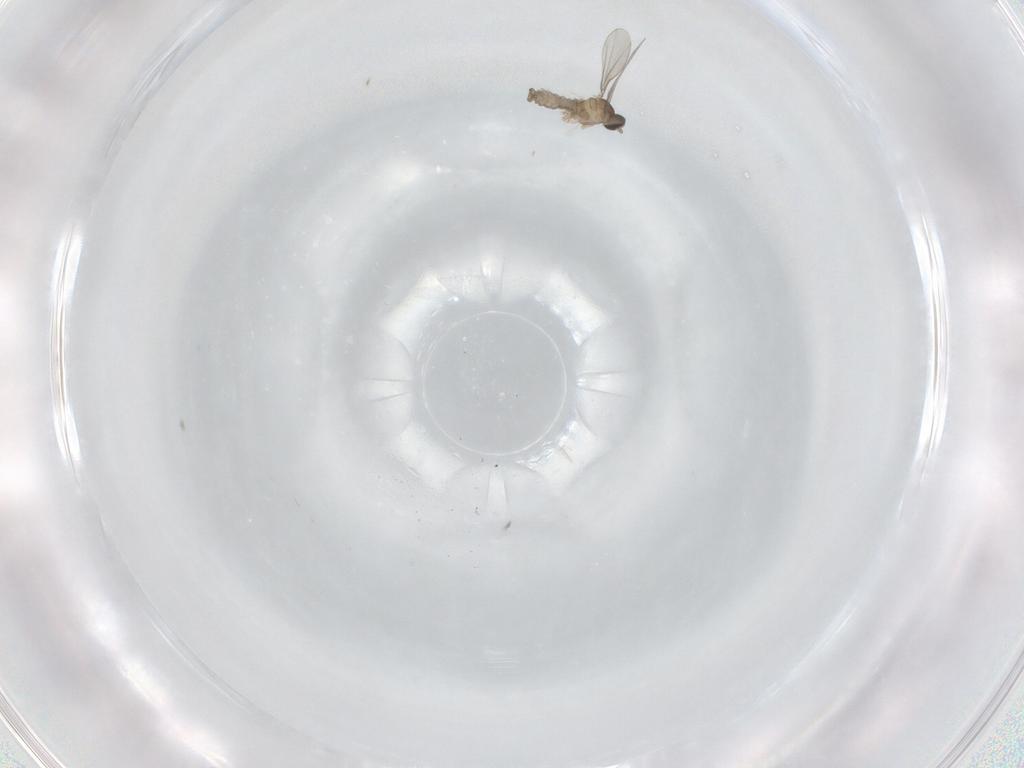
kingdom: Animalia
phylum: Arthropoda
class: Insecta
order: Diptera
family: Cecidomyiidae
